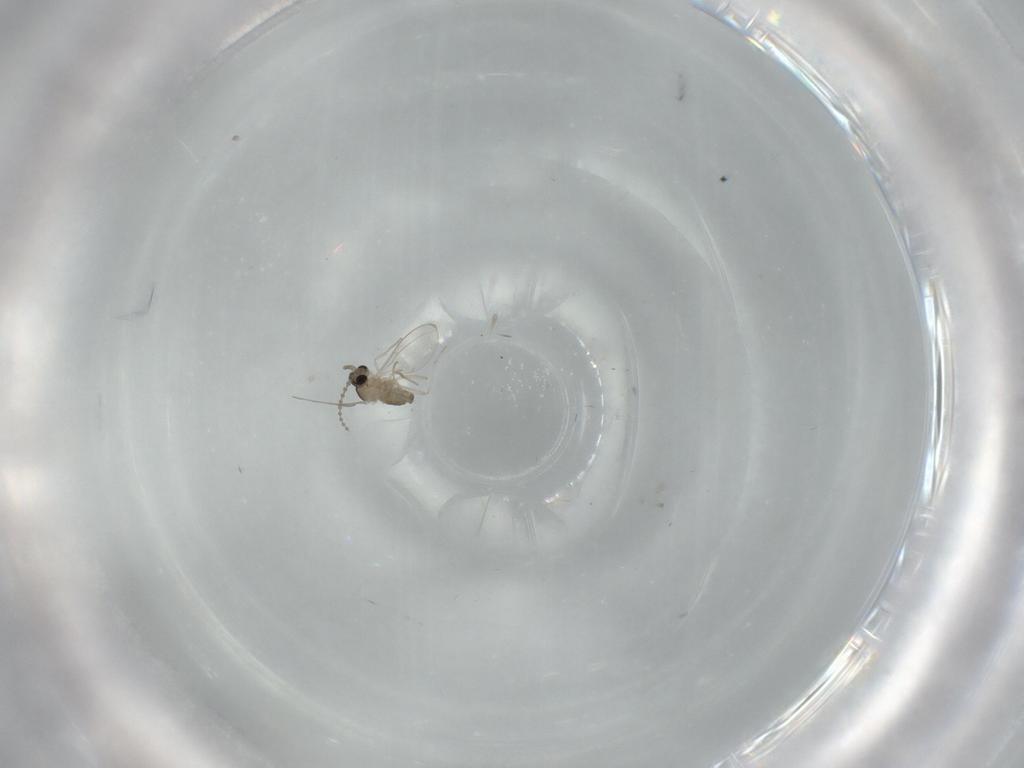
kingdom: Animalia
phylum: Arthropoda
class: Insecta
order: Diptera
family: Cecidomyiidae
